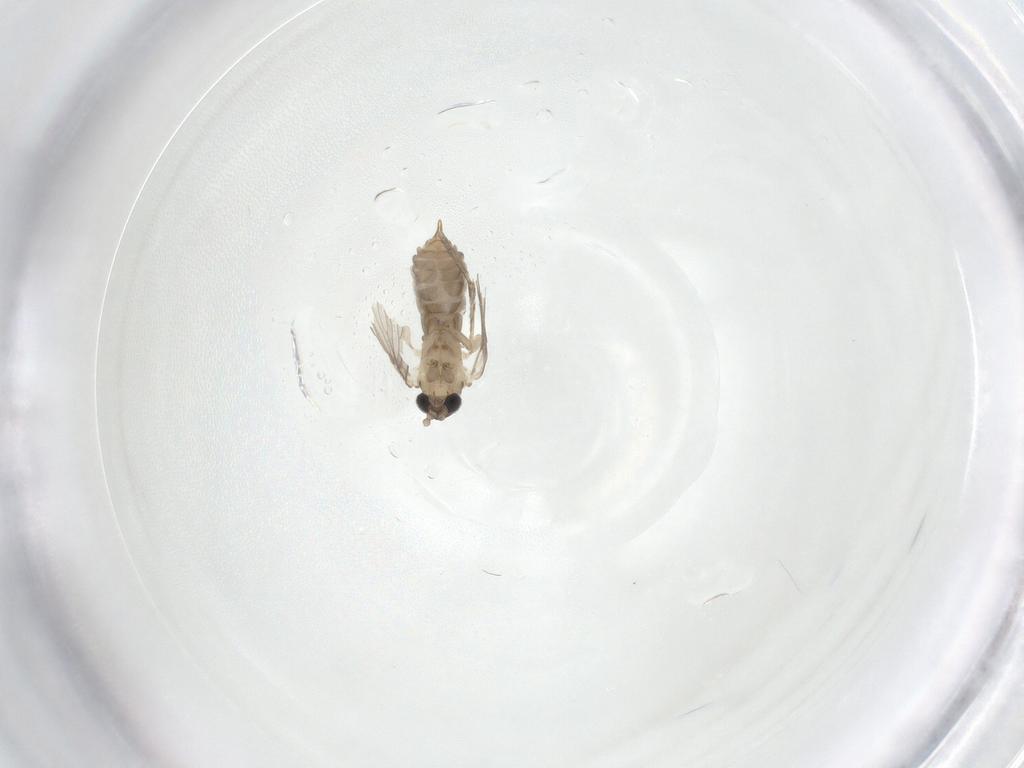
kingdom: Animalia
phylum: Arthropoda
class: Insecta
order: Diptera
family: Psychodidae
